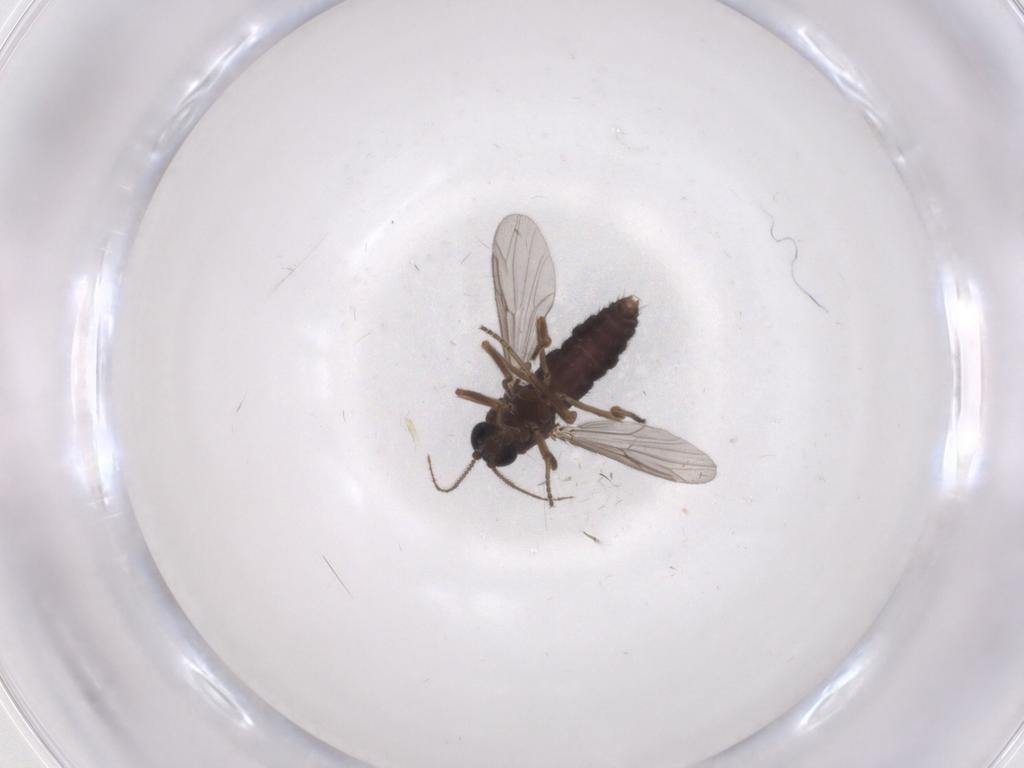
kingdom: Animalia
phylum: Arthropoda
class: Insecta
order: Diptera
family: Ceratopogonidae
